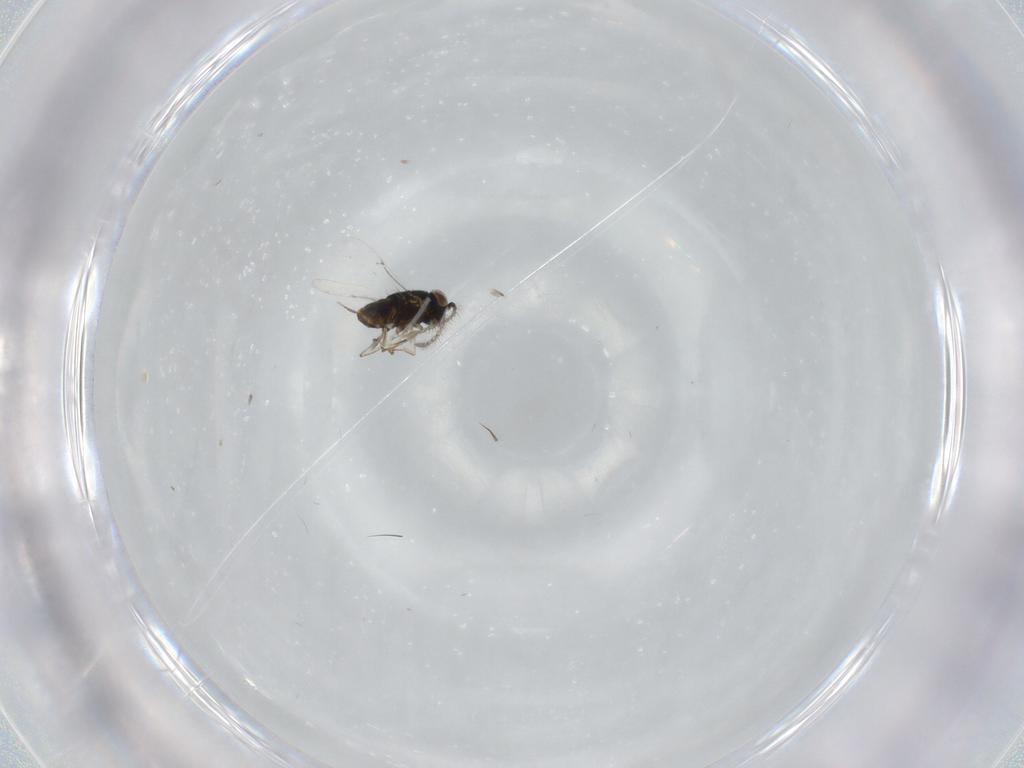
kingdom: Animalia
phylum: Arthropoda
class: Insecta
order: Hymenoptera
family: Encyrtidae
